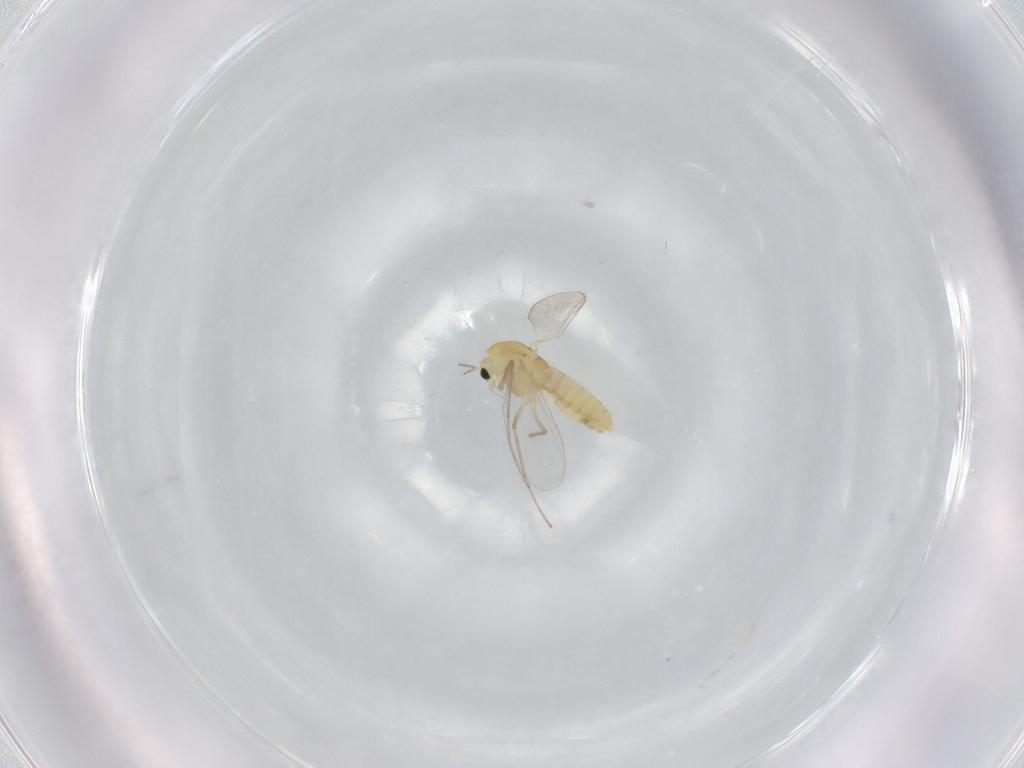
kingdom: Animalia
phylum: Arthropoda
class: Insecta
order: Diptera
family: Chironomidae
